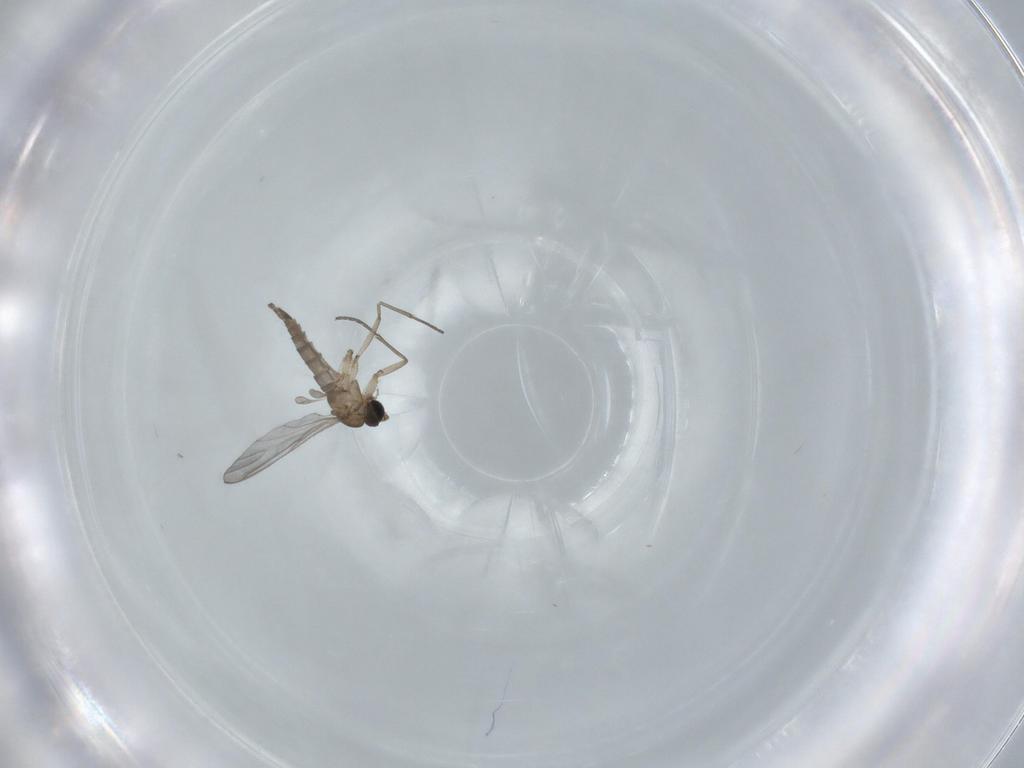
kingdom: Animalia
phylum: Arthropoda
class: Insecta
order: Diptera
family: Sciaridae
